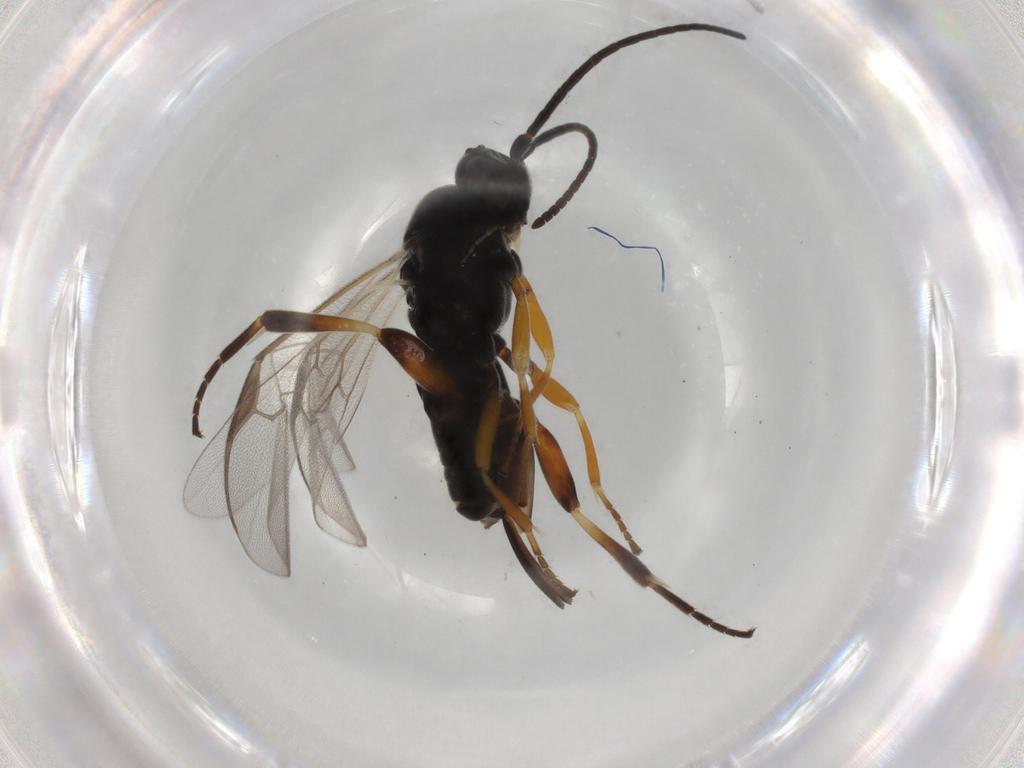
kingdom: Animalia
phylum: Arthropoda
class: Insecta
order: Hymenoptera
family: Braconidae
